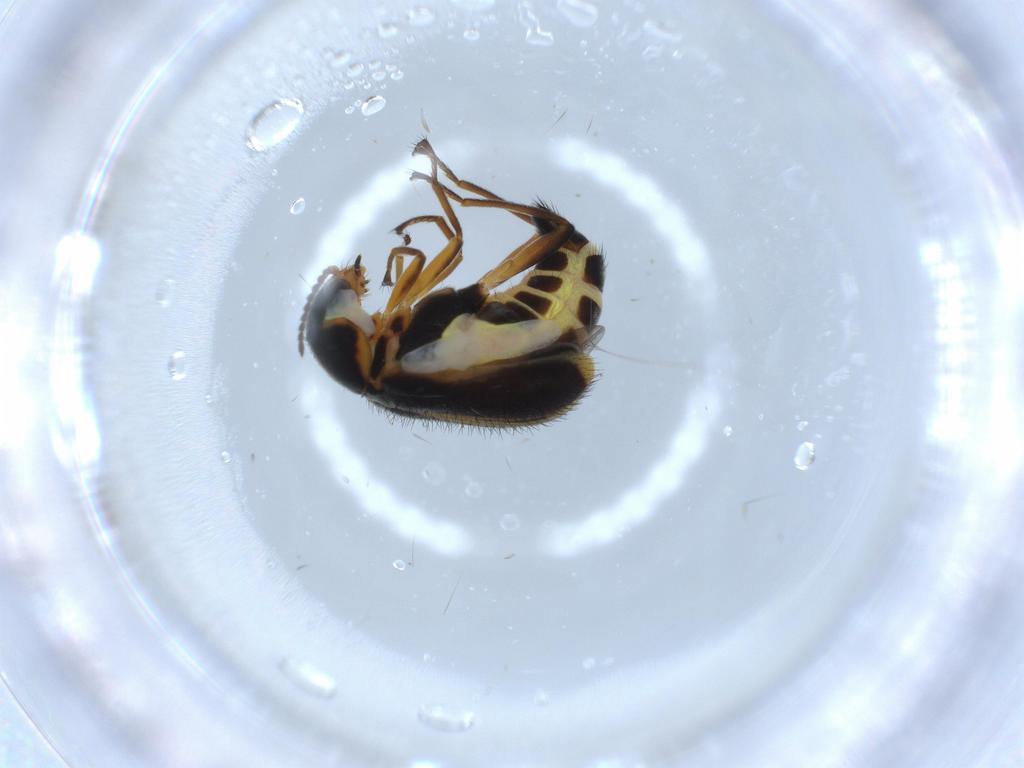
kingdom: Animalia
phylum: Arthropoda
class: Insecta
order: Coleoptera
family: Melyridae
